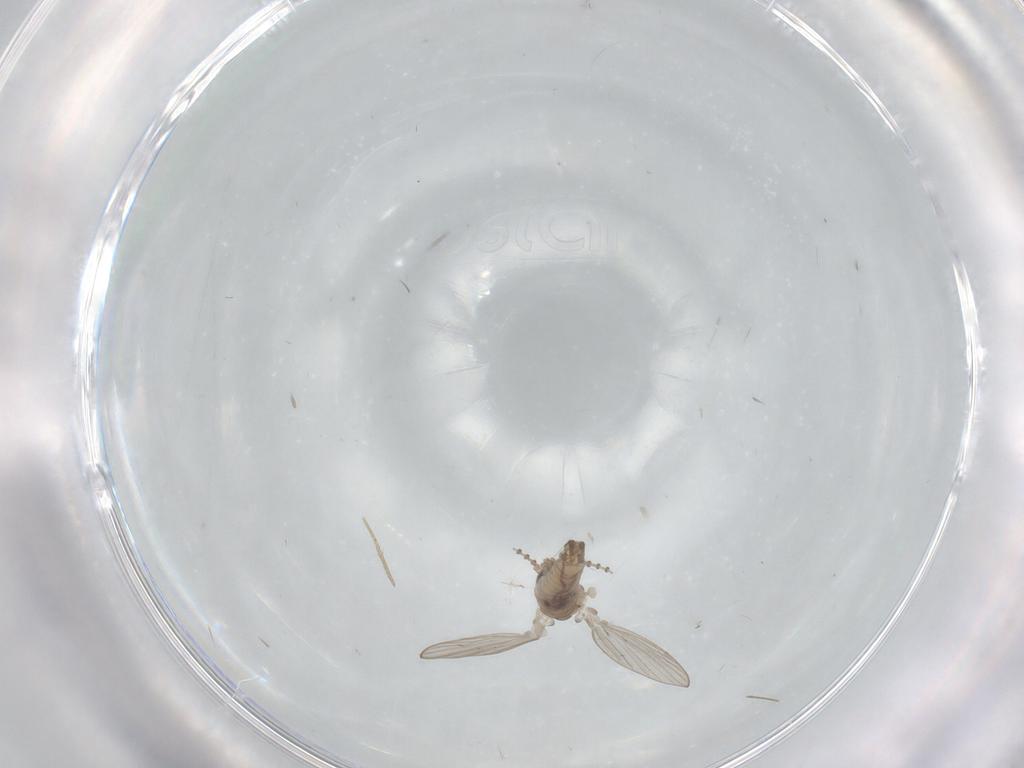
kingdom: Animalia
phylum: Arthropoda
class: Insecta
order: Diptera
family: Psychodidae
